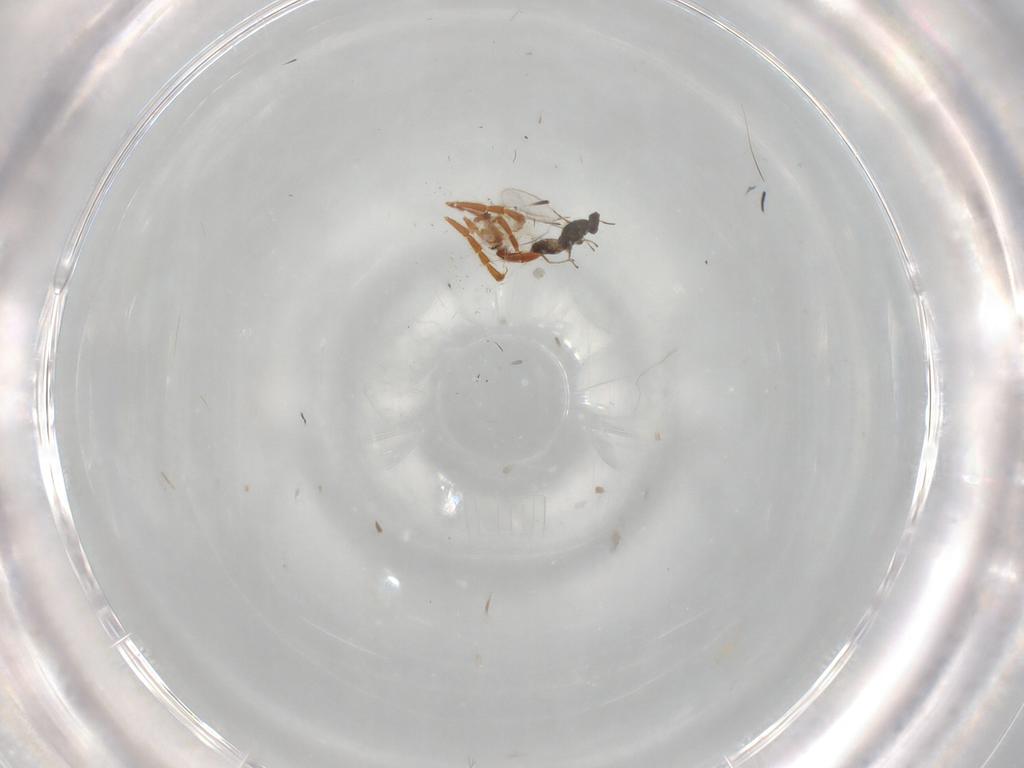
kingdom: Animalia
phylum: Arthropoda
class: Insecta
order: Hymenoptera
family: Mymaridae
